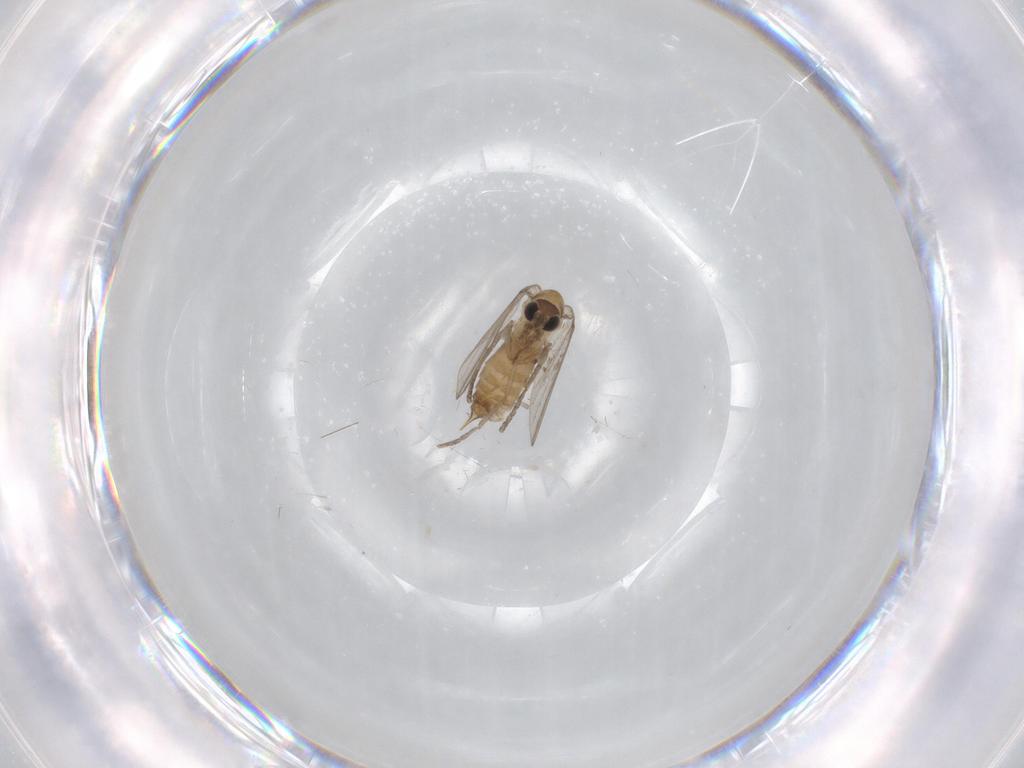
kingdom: Animalia
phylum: Arthropoda
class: Insecta
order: Diptera
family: Psychodidae
